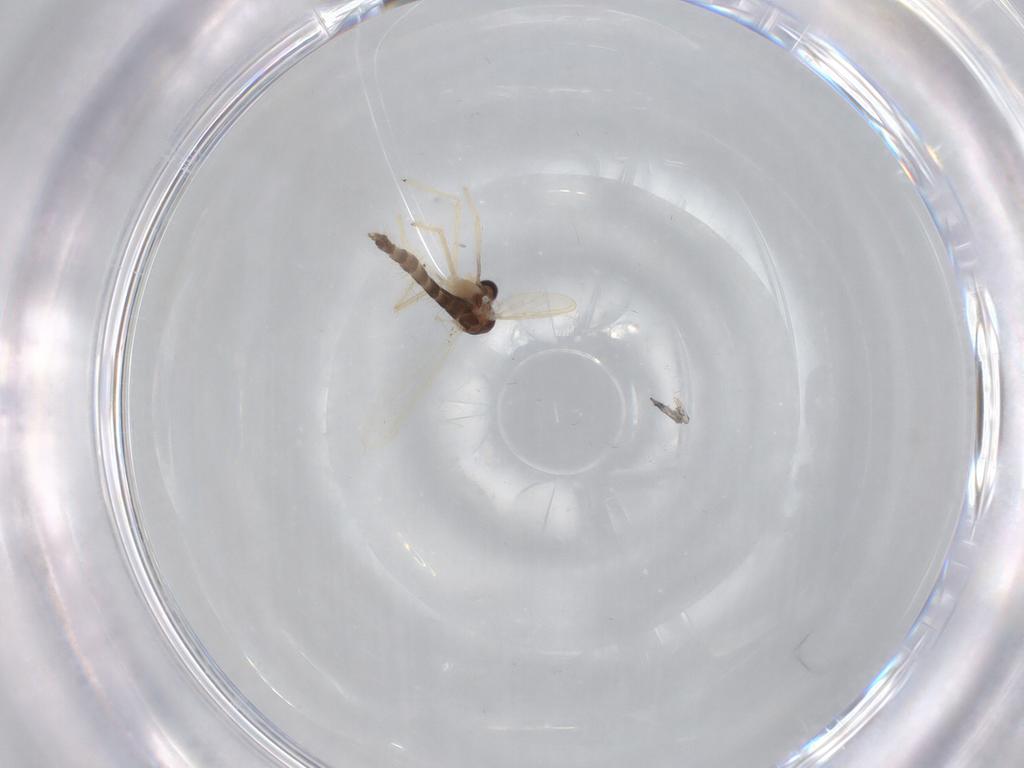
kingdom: Animalia
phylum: Arthropoda
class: Insecta
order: Diptera
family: Chironomidae
